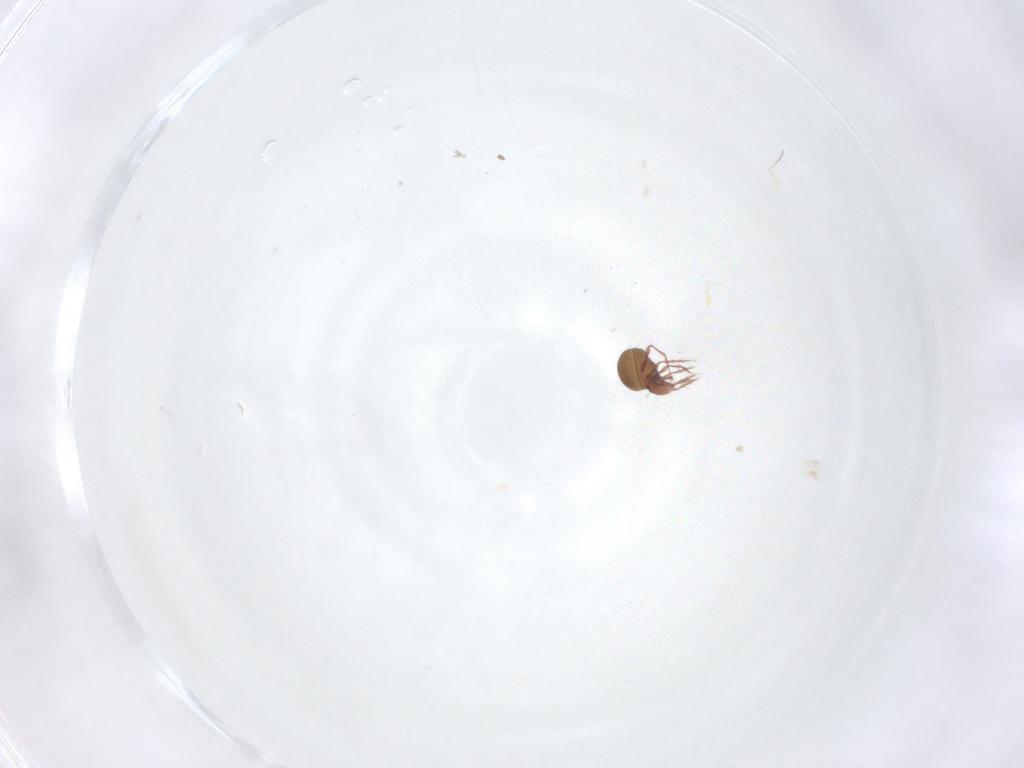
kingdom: Animalia
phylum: Arthropoda
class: Arachnida
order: Sarcoptiformes
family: Oppiidae
